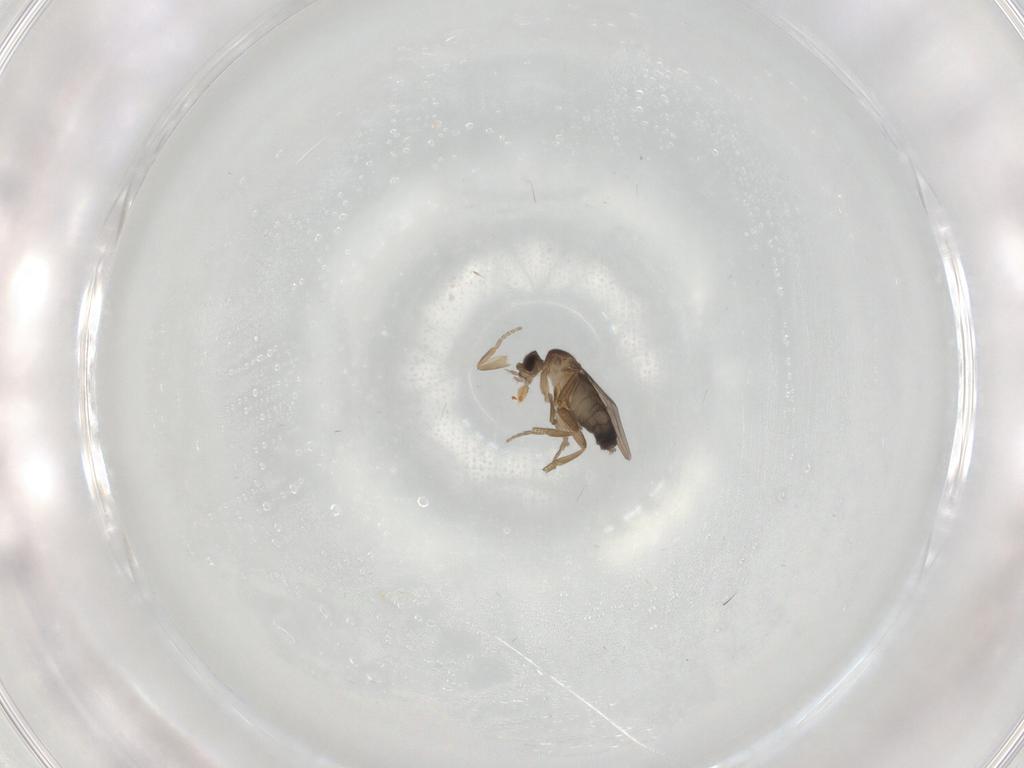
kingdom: Animalia
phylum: Arthropoda
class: Insecta
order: Diptera
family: Phoridae
